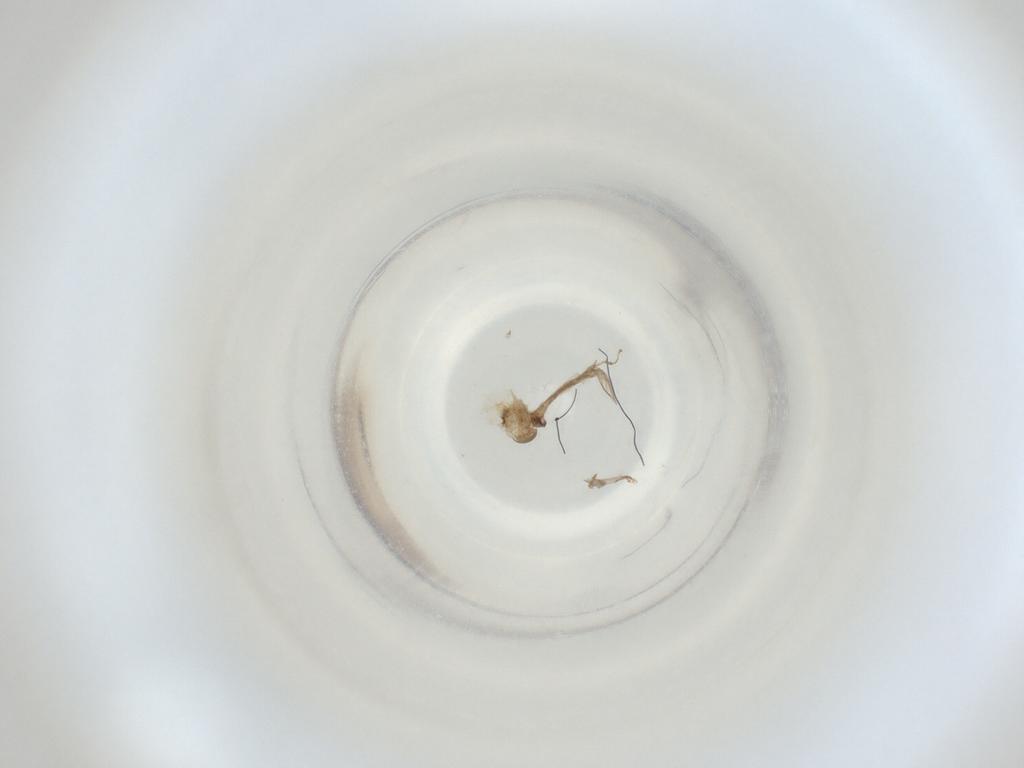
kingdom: Animalia
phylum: Arthropoda
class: Insecta
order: Diptera
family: Cecidomyiidae
